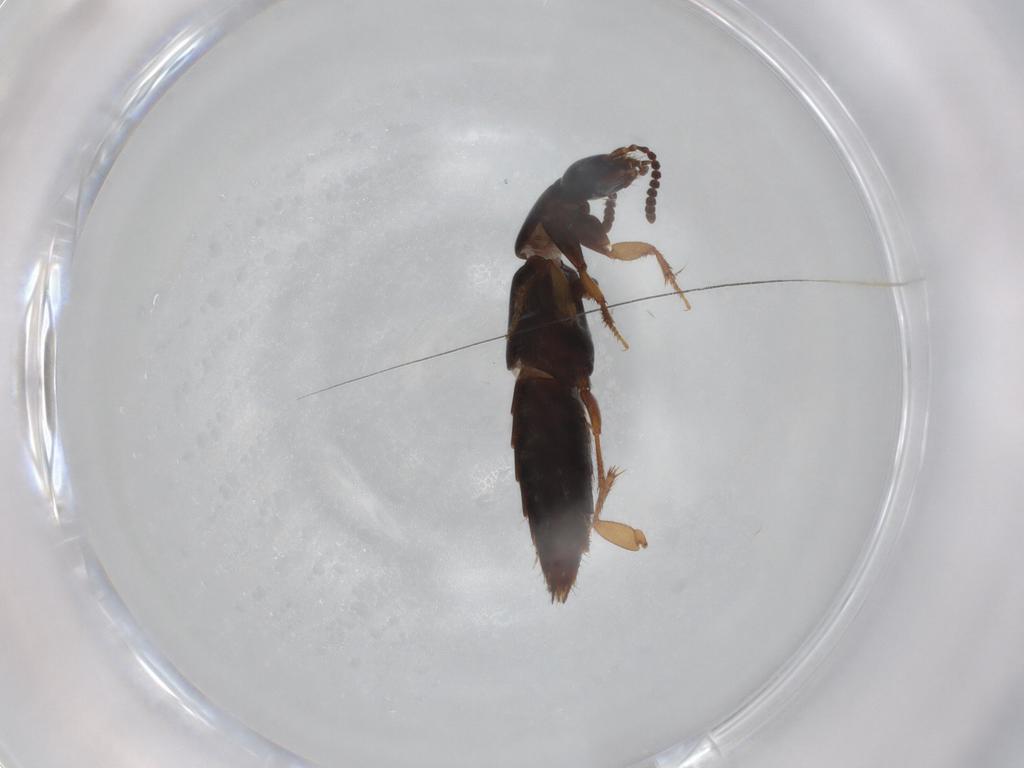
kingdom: Animalia
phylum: Arthropoda
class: Insecta
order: Coleoptera
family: Staphylinidae
